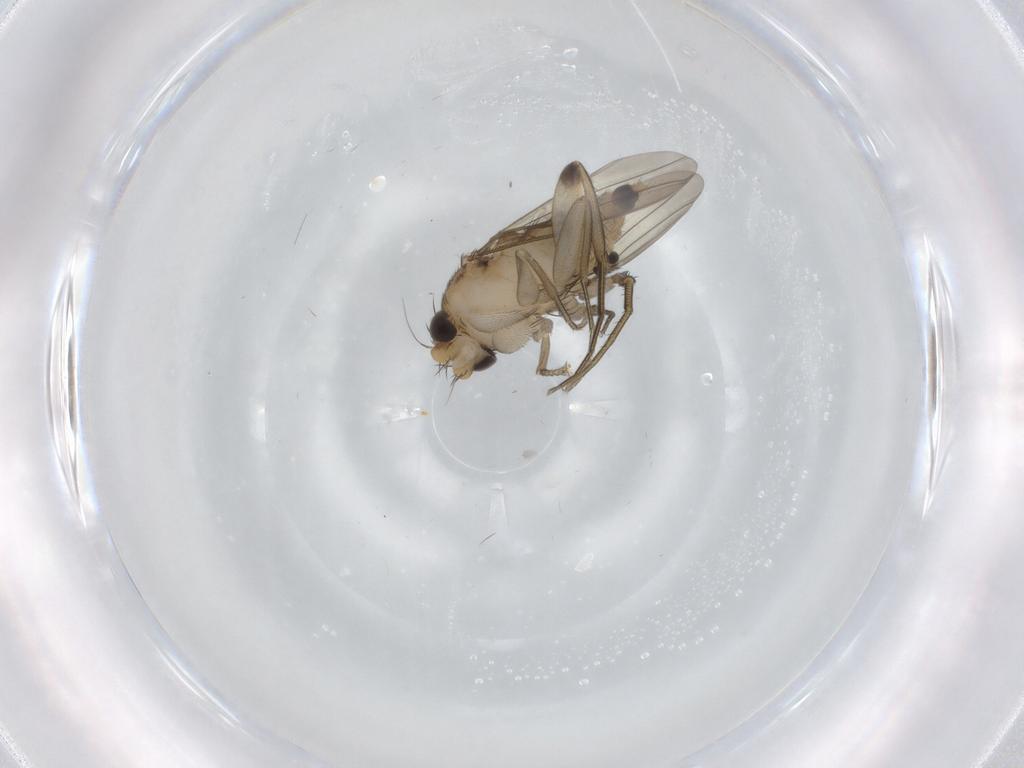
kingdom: Animalia
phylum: Arthropoda
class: Insecta
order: Diptera
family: Phoridae
